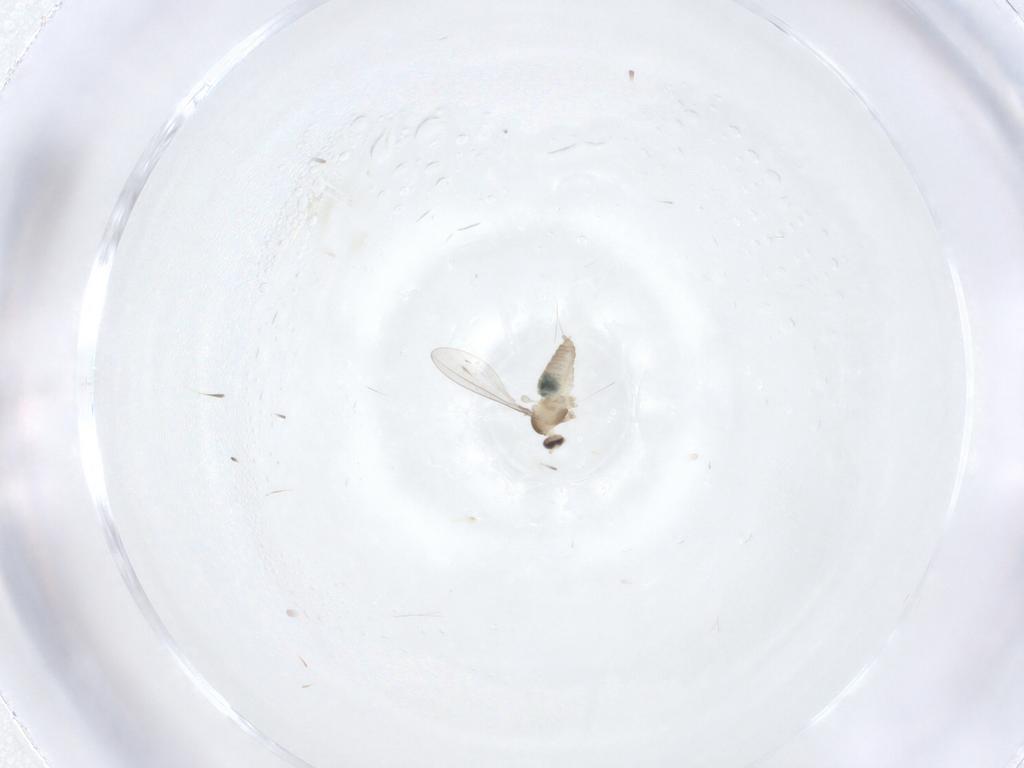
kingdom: Animalia
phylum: Arthropoda
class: Insecta
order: Diptera
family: Cecidomyiidae
